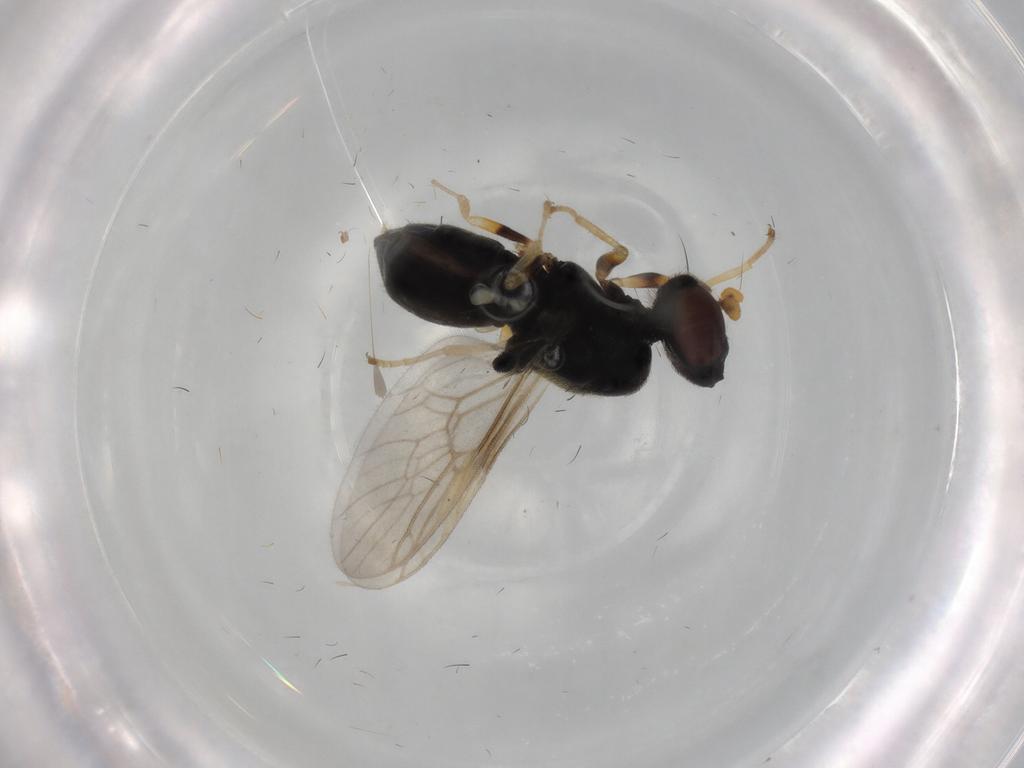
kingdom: Animalia
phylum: Arthropoda
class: Insecta
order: Diptera
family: Stratiomyidae
